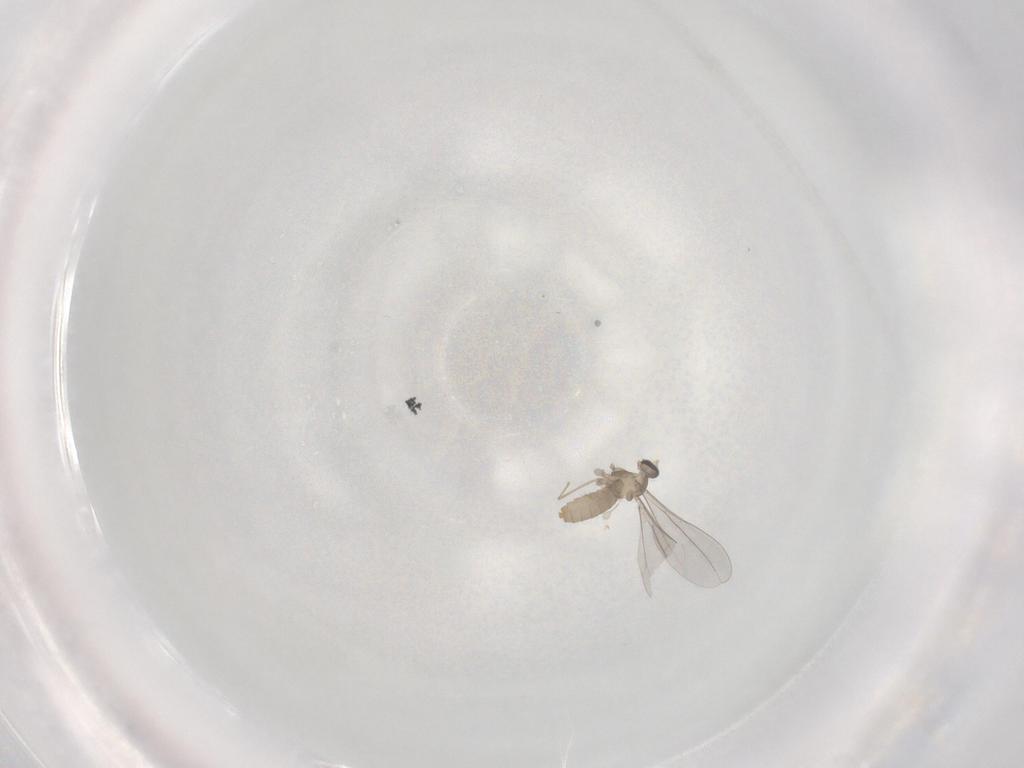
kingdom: Animalia
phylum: Arthropoda
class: Insecta
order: Diptera
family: Cecidomyiidae
